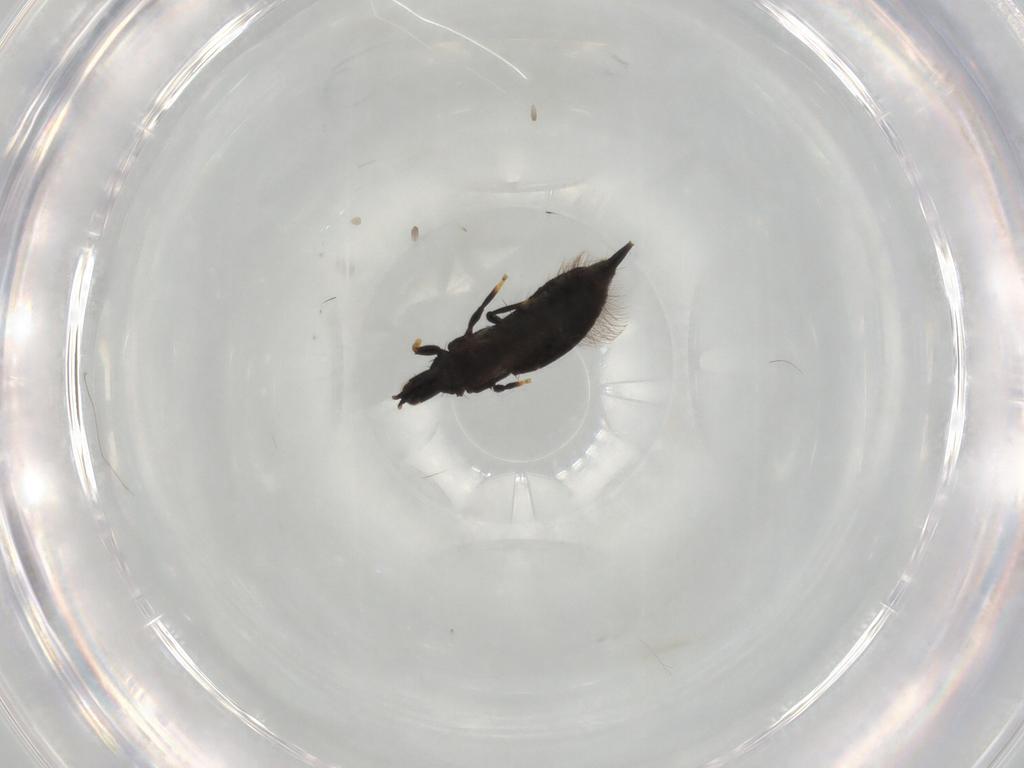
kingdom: Animalia
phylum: Arthropoda
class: Insecta
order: Thysanoptera
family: Phlaeothripidae
